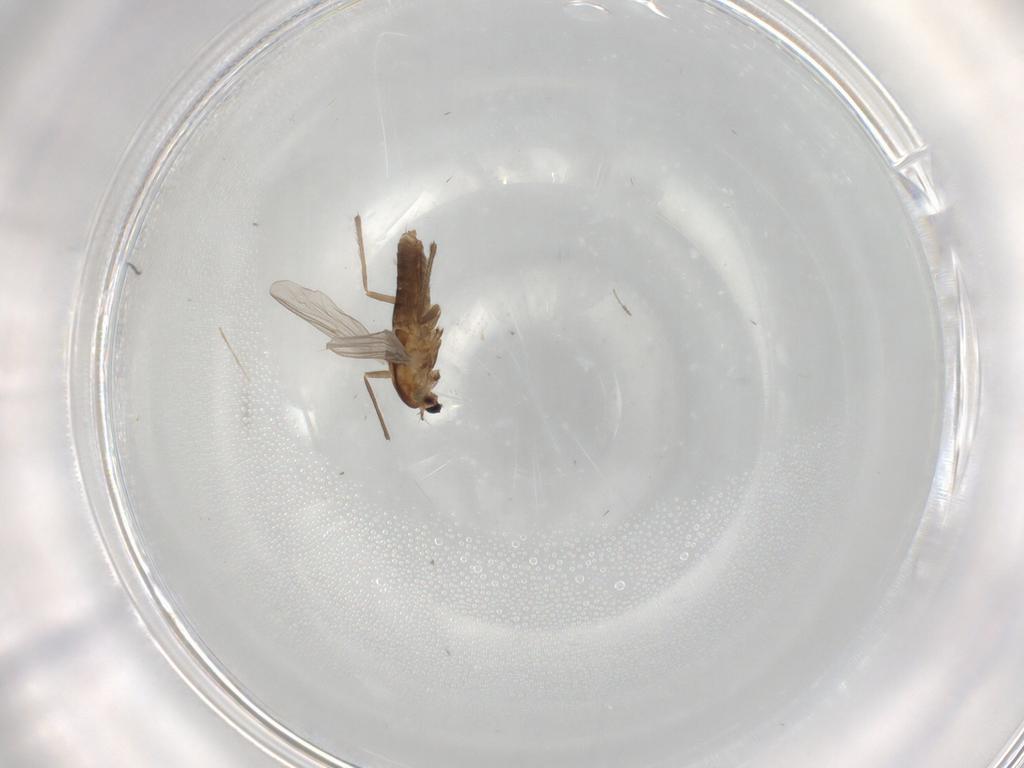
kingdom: Animalia
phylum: Arthropoda
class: Insecta
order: Diptera
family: Chironomidae
